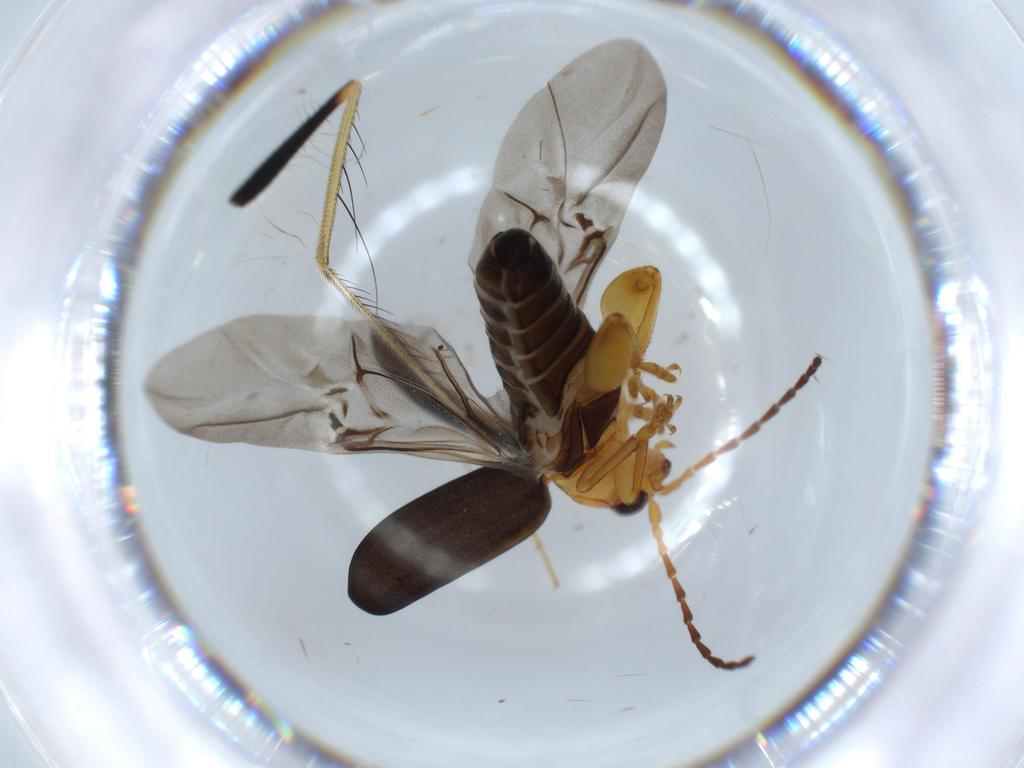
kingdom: Animalia
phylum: Arthropoda
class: Insecta
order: Coleoptera
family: Chrysomelidae
